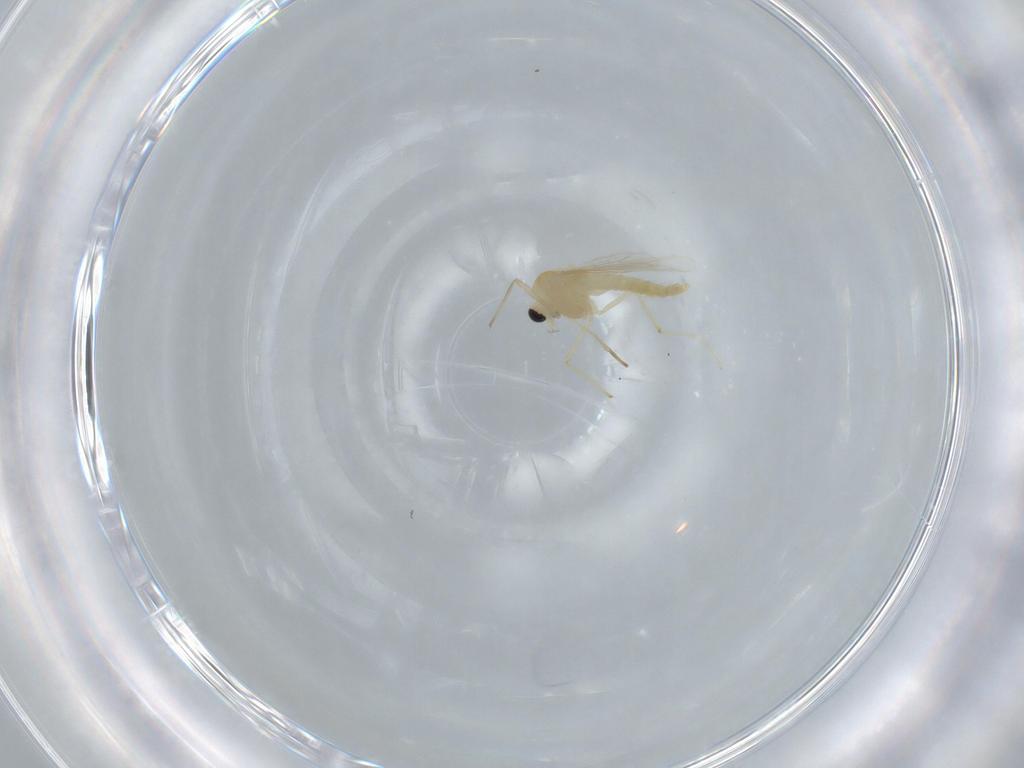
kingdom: Animalia
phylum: Arthropoda
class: Insecta
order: Diptera
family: Chironomidae
